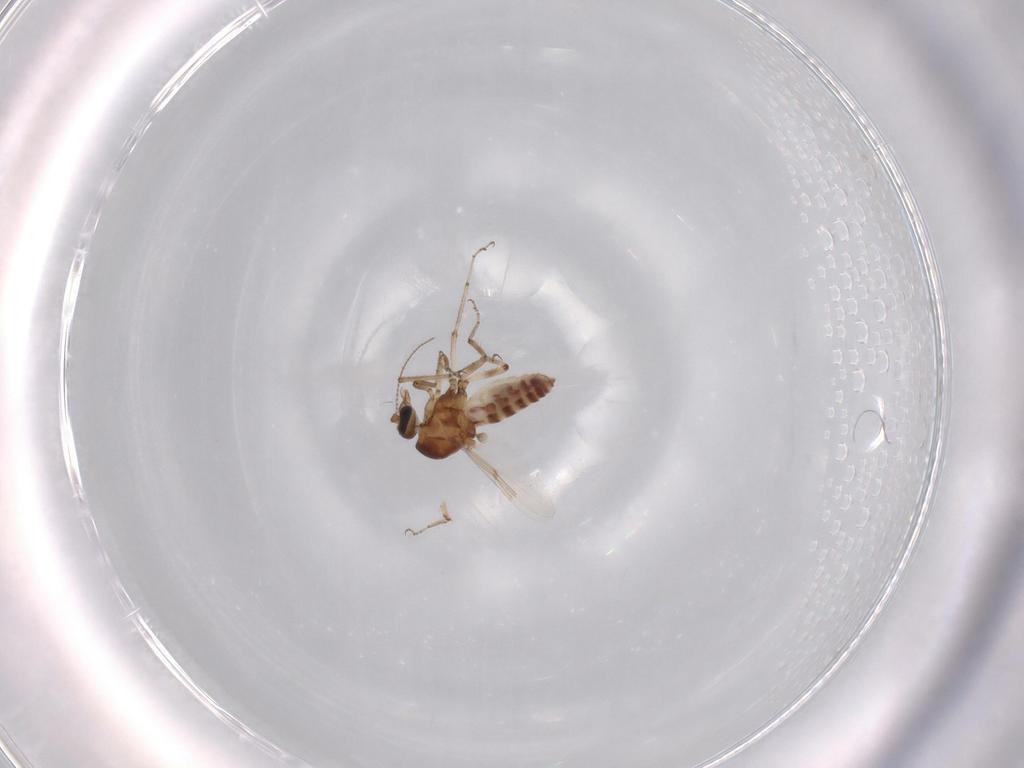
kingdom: Animalia
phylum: Arthropoda
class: Insecta
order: Diptera
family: Ceratopogonidae
